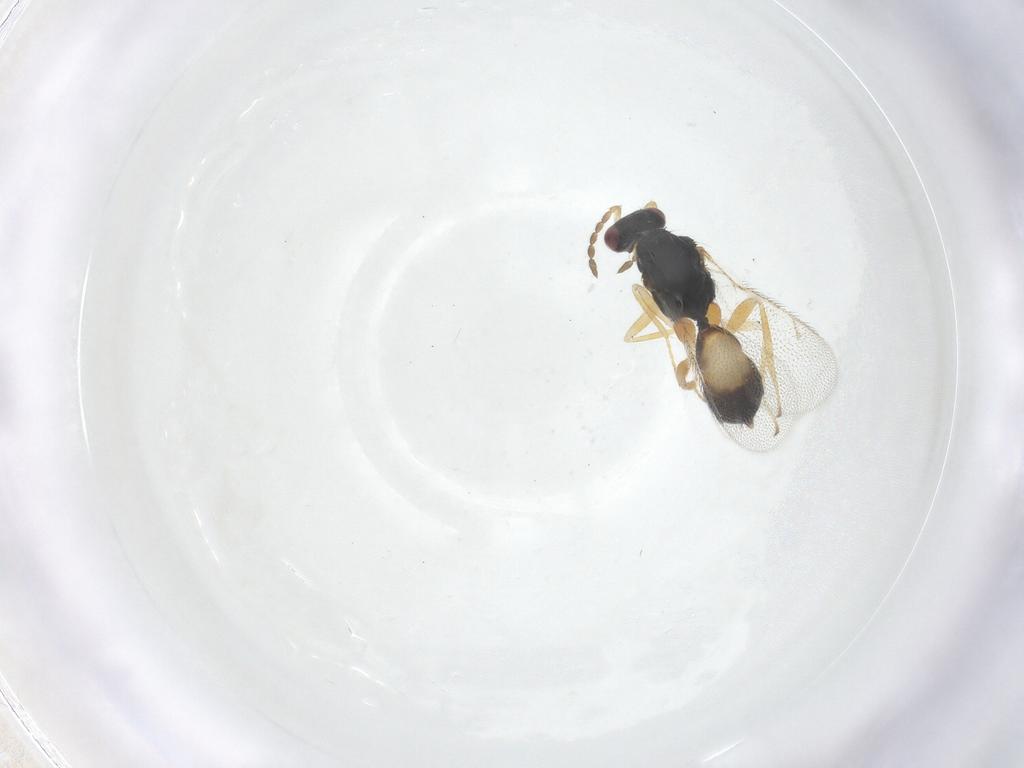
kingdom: Animalia
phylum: Arthropoda
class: Insecta
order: Hymenoptera
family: Eulophidae
